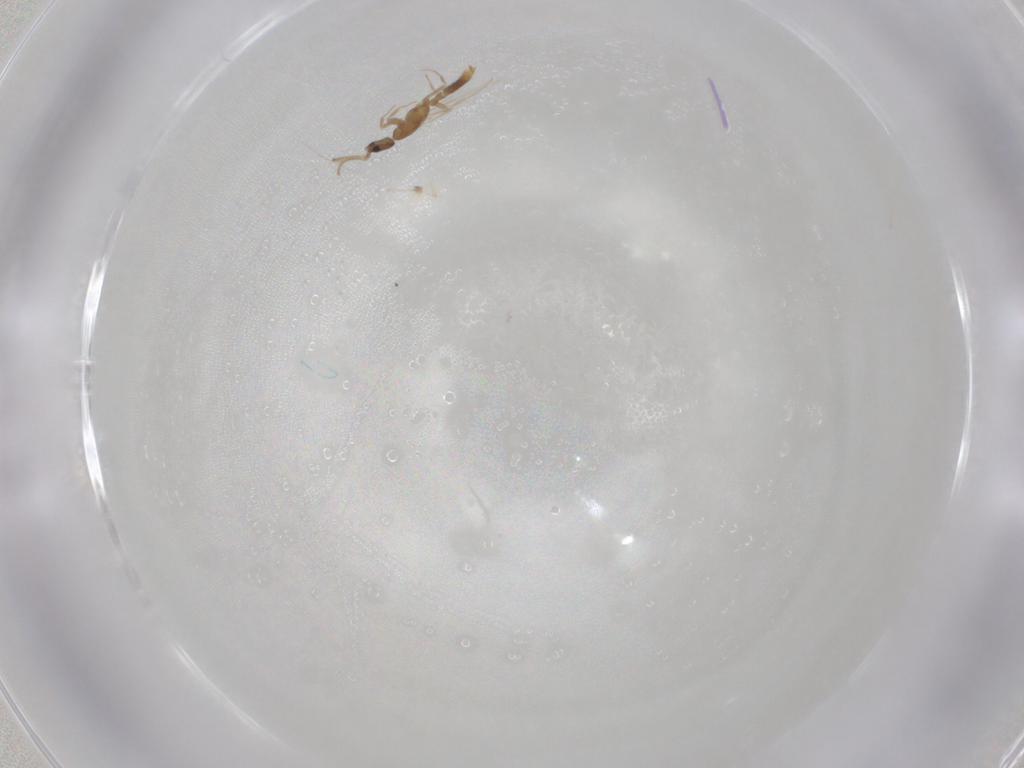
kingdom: Animalia
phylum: Arthropoda
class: Insecta
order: Hymenoptera
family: Formicidae
